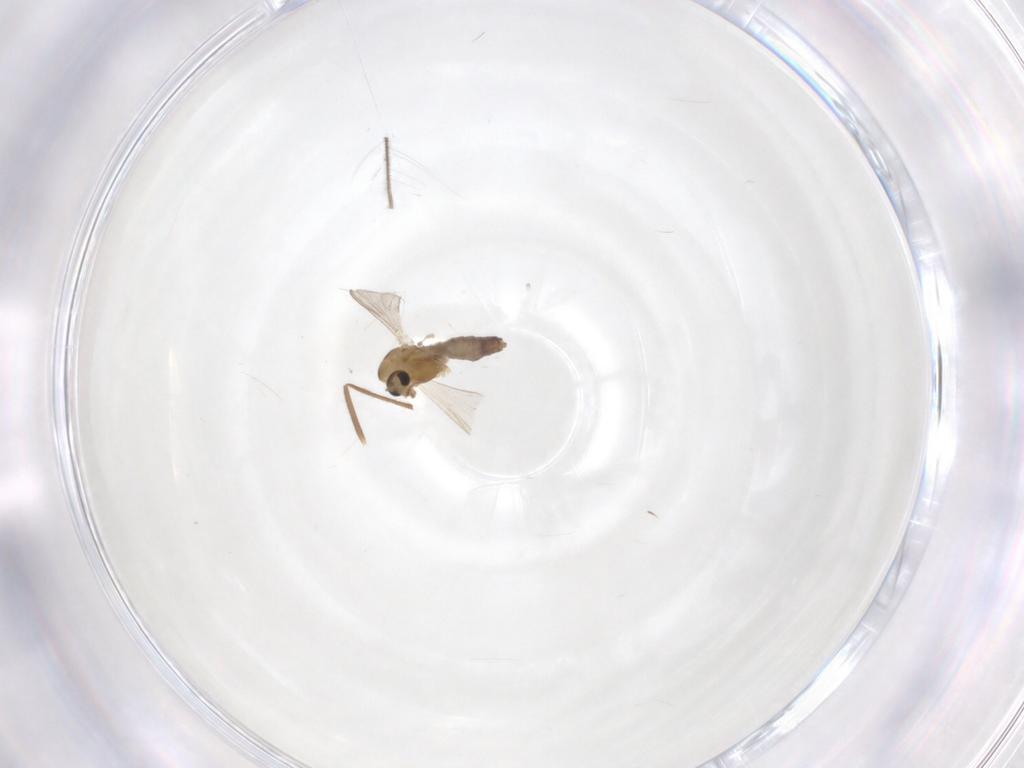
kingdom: Animalia
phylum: Arthropoda
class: Insecta
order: Diptera
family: Chironomidae
